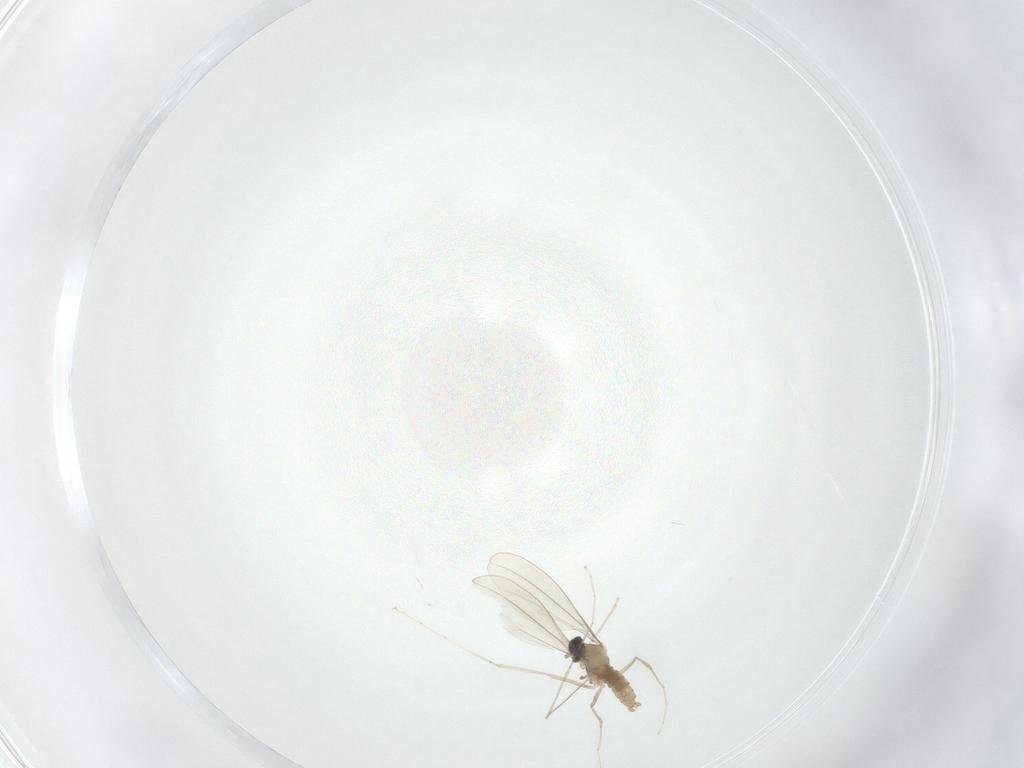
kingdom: Animalia
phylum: Arthropoda
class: Insecta
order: Diptera
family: Cecidomyiidae
